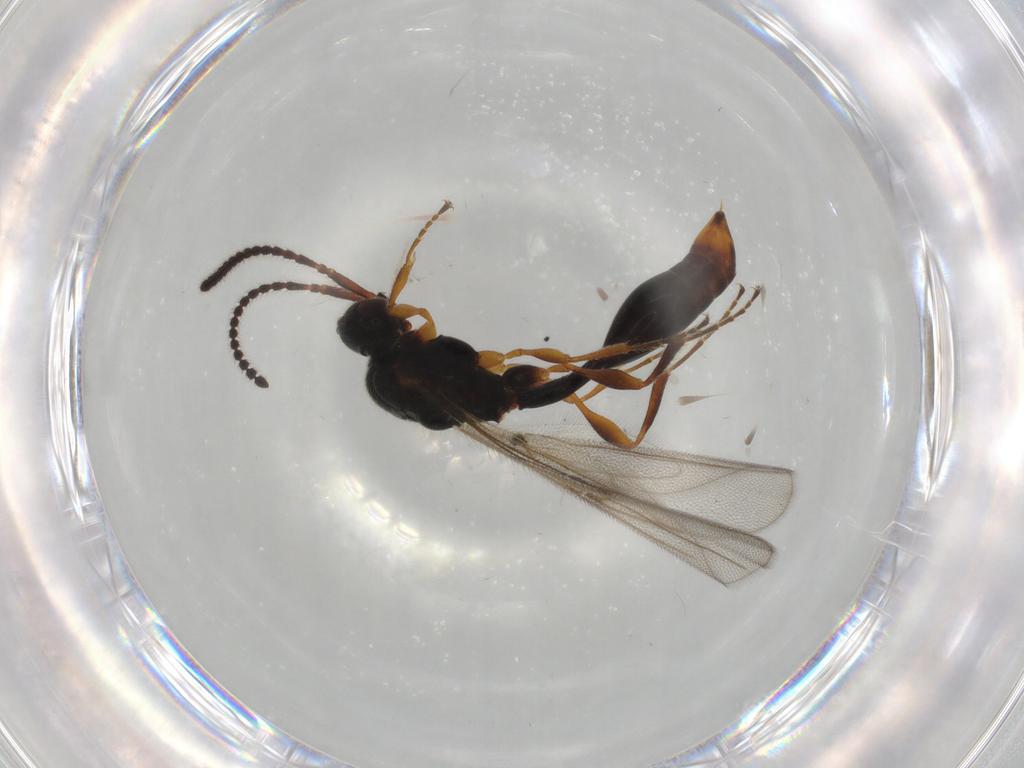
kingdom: Animalia
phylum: Arthropoda
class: Insecta
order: Hymenoptera
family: Diapriidae
